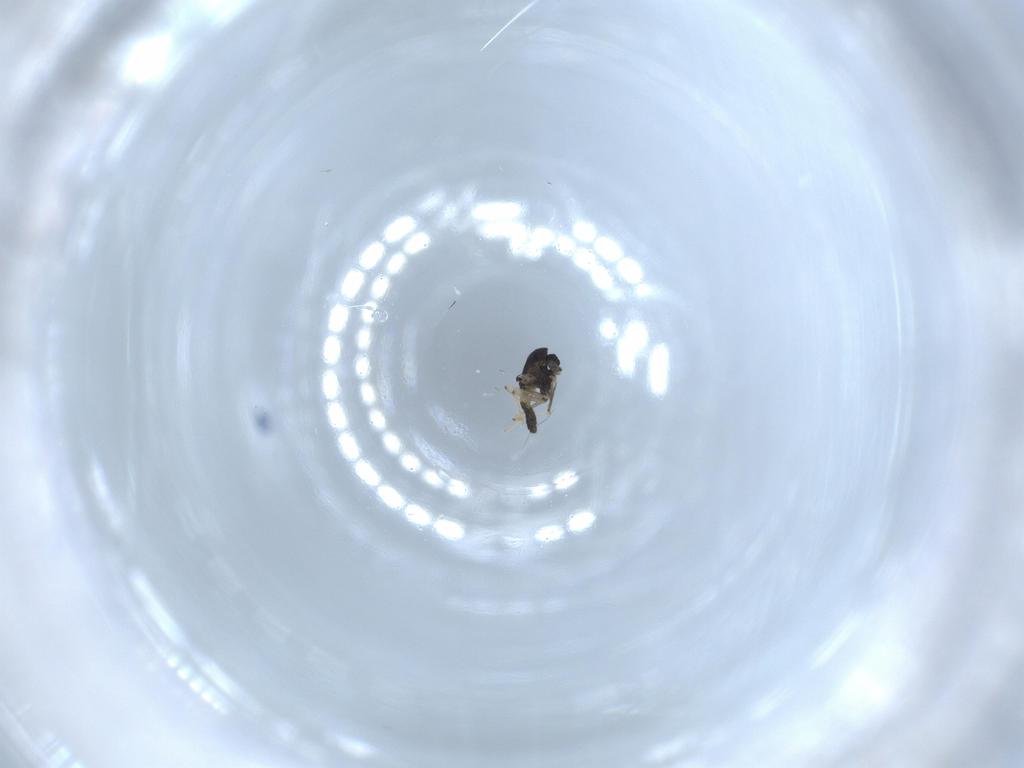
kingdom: Animalia
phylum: Arthropoda
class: Insecta
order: Diptera
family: Chironomidae
